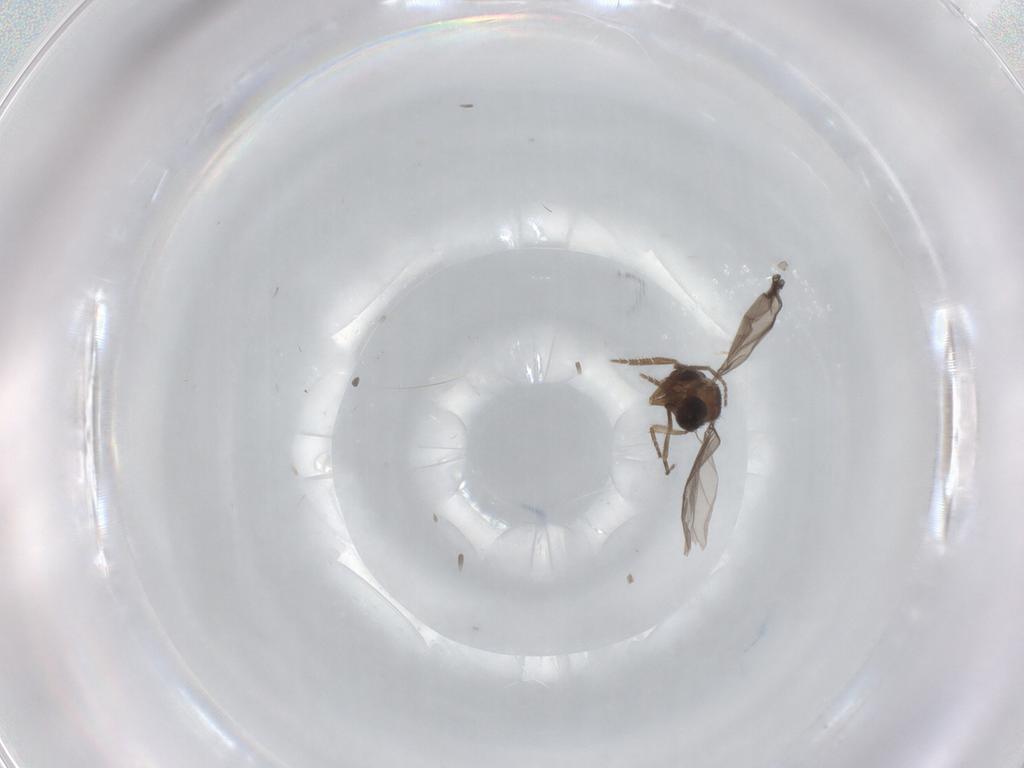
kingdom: Animalia
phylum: Arthropoda
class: Insecta
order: Diptera
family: Phoridae
